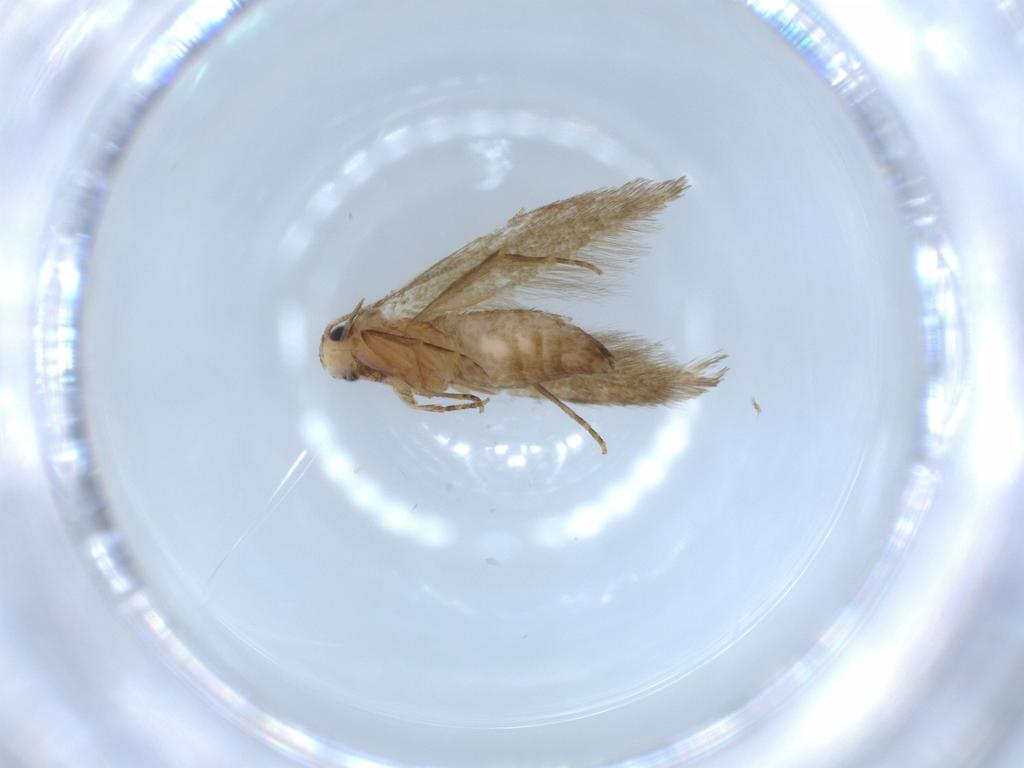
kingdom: Animalia
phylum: Arthropoda
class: Insecta
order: Lepidoptera
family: Tineidae
